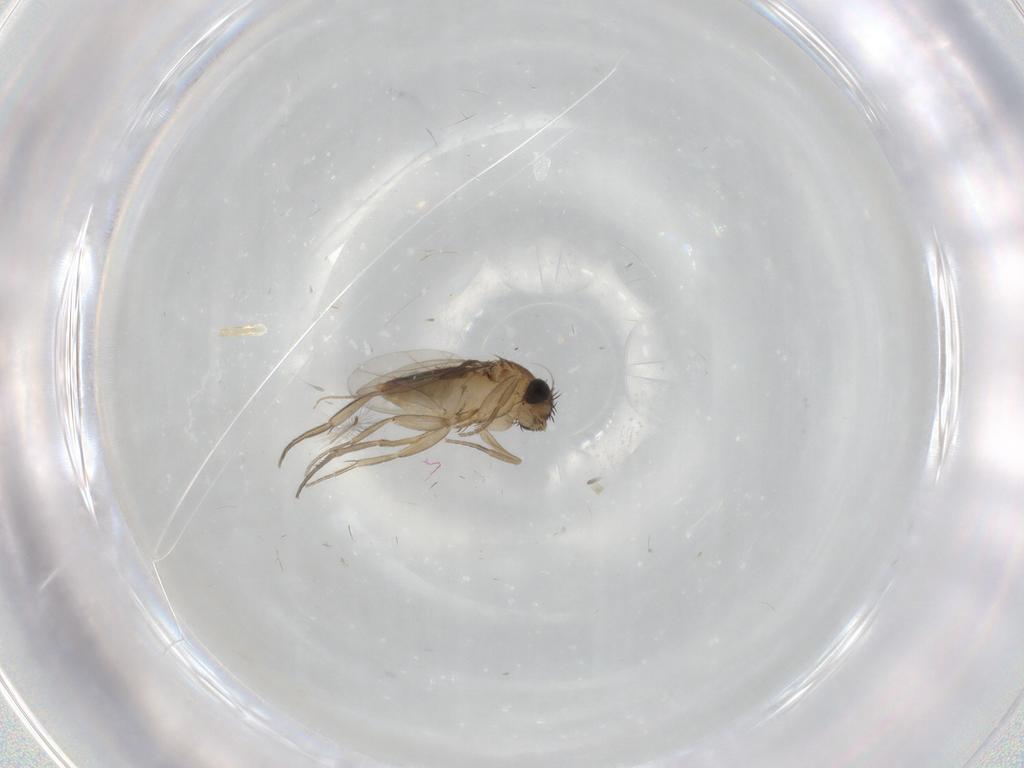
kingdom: Animalia
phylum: Arthropoda
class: Insecta
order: Diptera
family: Phoridae
